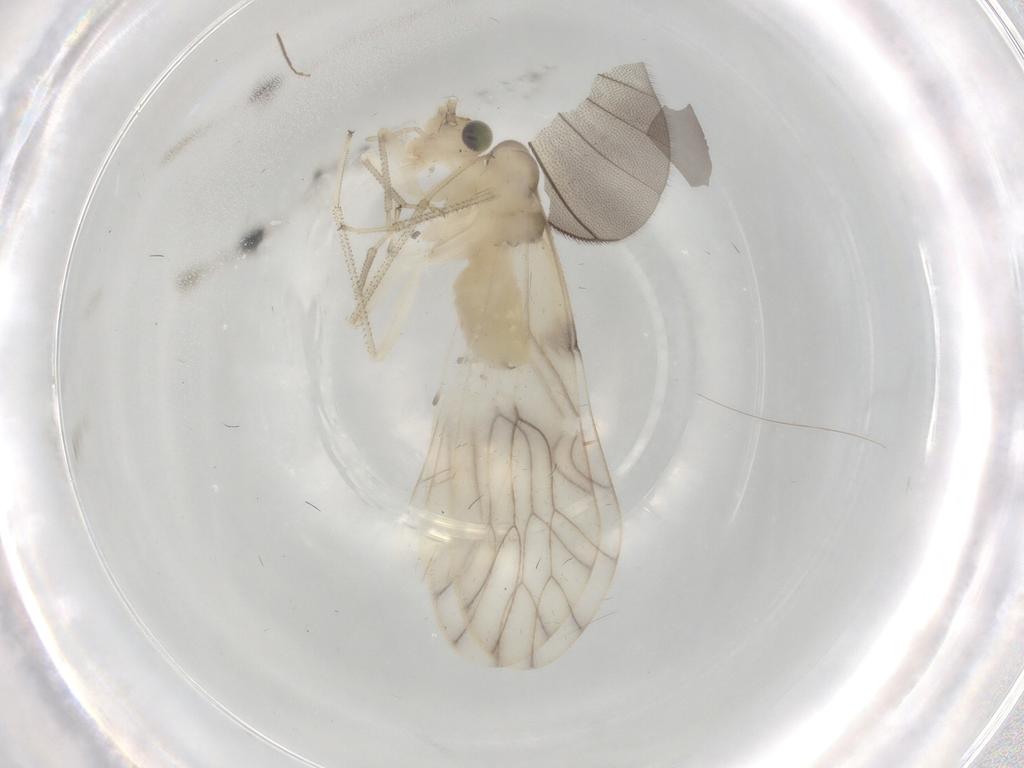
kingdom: Animalia
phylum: Arthropoda
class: Insecta
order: Psocodea
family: Caeciliusidae
